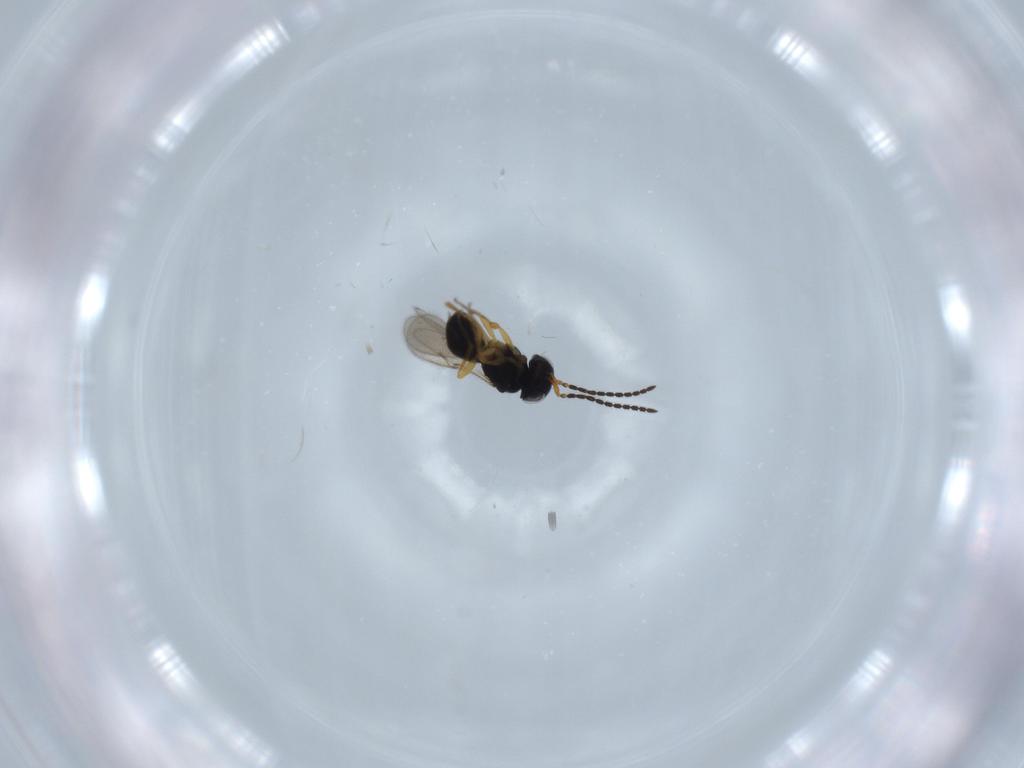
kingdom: Animalia
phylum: Arthropoda
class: Insecta
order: Hymenoptera
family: Scelionidae
